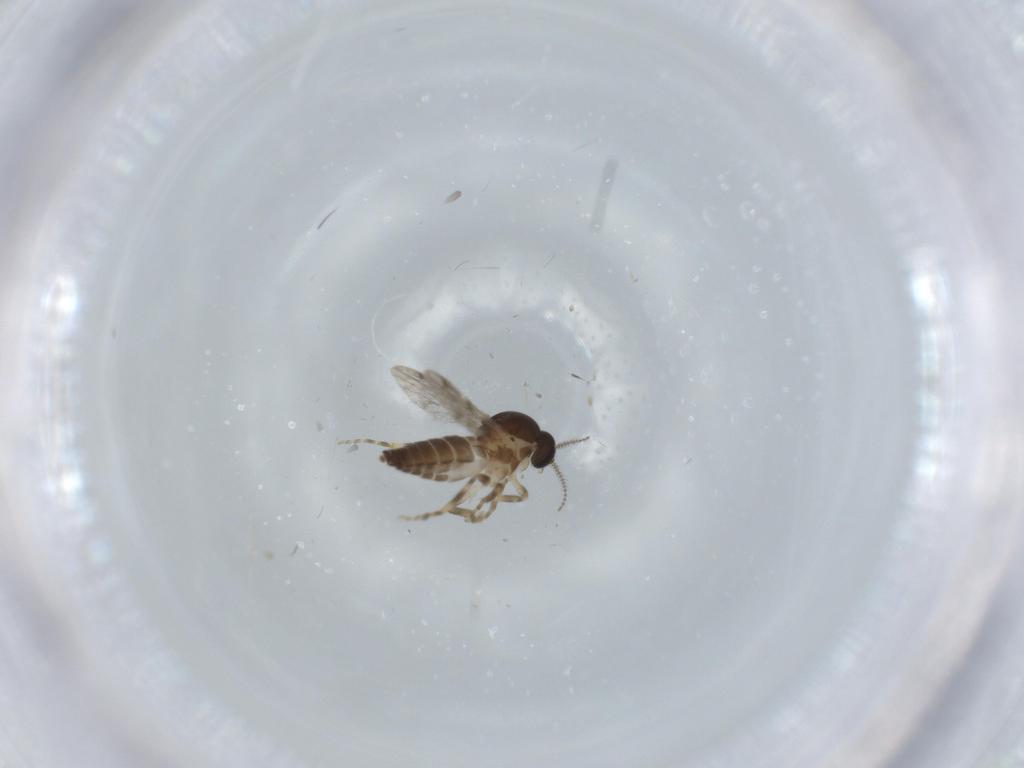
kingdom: Animalia
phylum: Arthropoda
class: Insecta
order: Diptera
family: Ceratopogonidae
